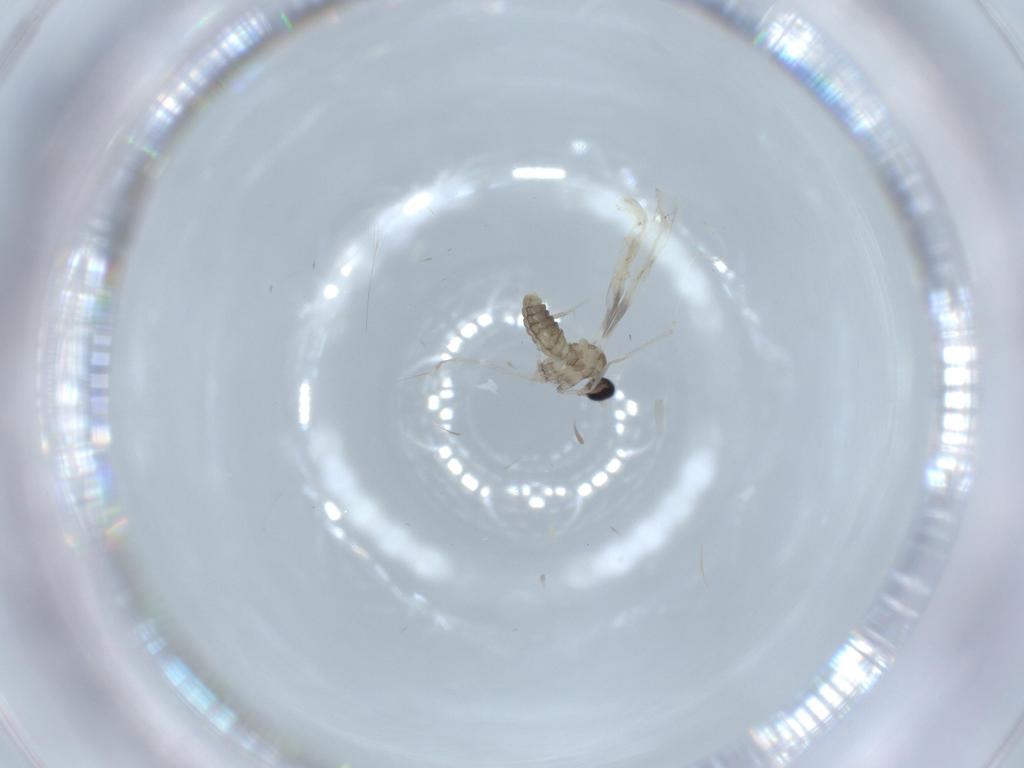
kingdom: Animalia
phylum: Arthropoda
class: Insecta
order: Diptera
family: Cecidomyiidae
